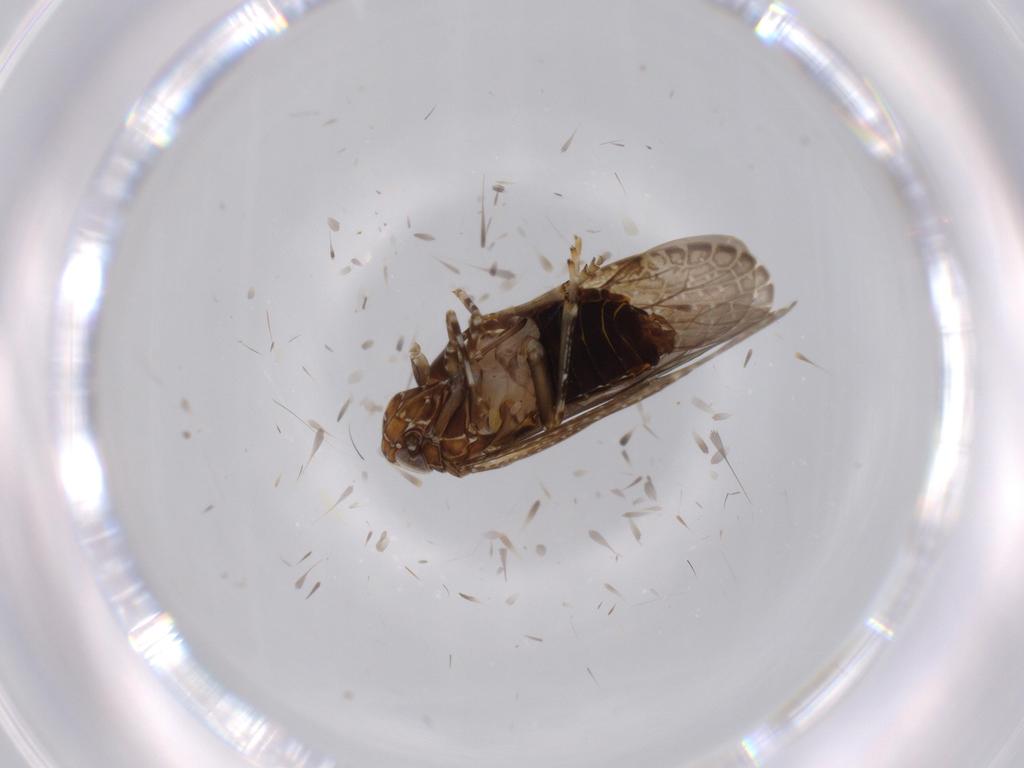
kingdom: Animalia
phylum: Arthropoda
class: Insecta
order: Hemiptera
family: Achilidae
